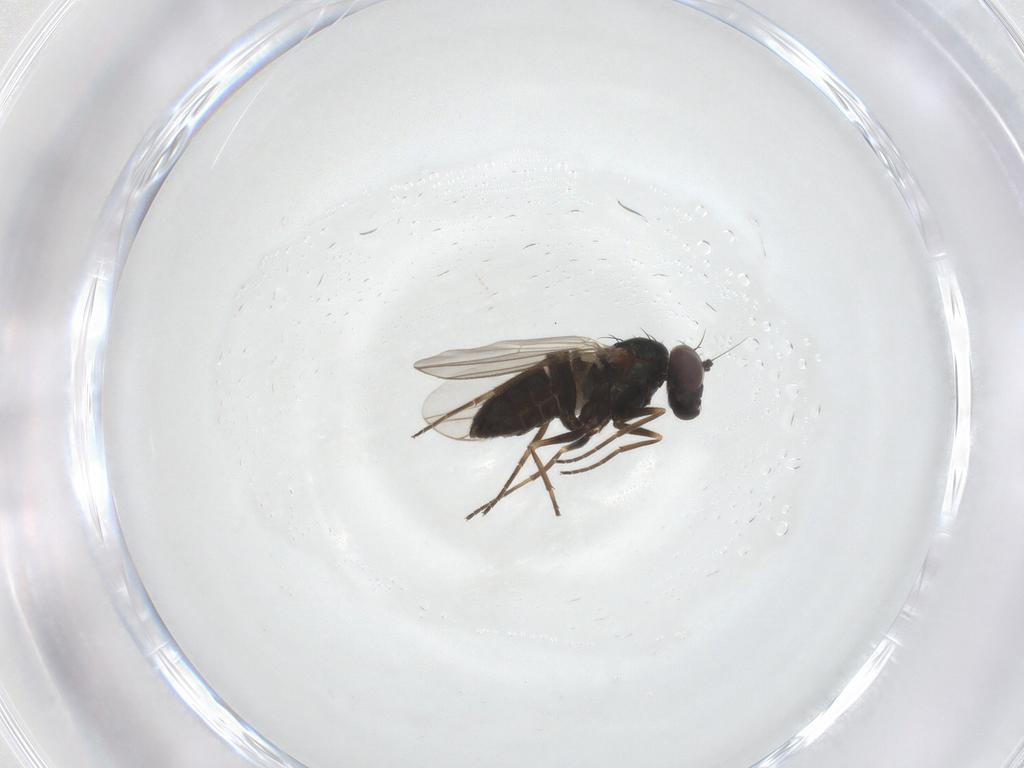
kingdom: Animalia
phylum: Arthropoda
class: Insecta
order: Diptera
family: Dolichopodidae
